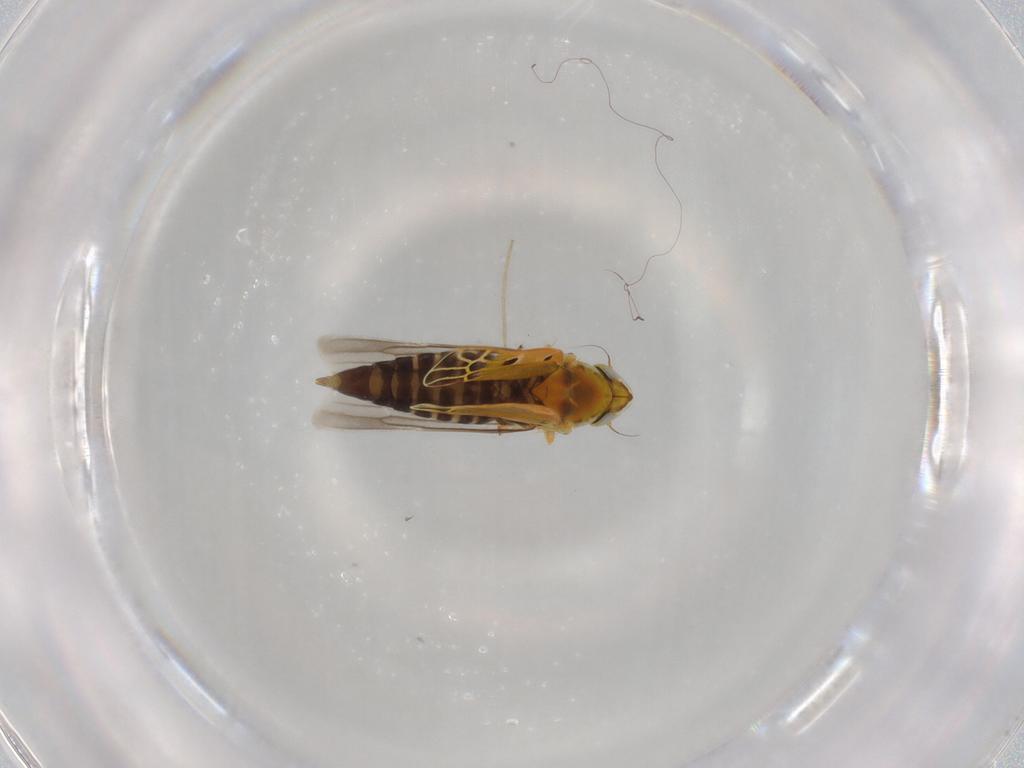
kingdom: Animalia
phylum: Arthropoda
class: Insecta
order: Hemiptera
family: Cicadellidae
